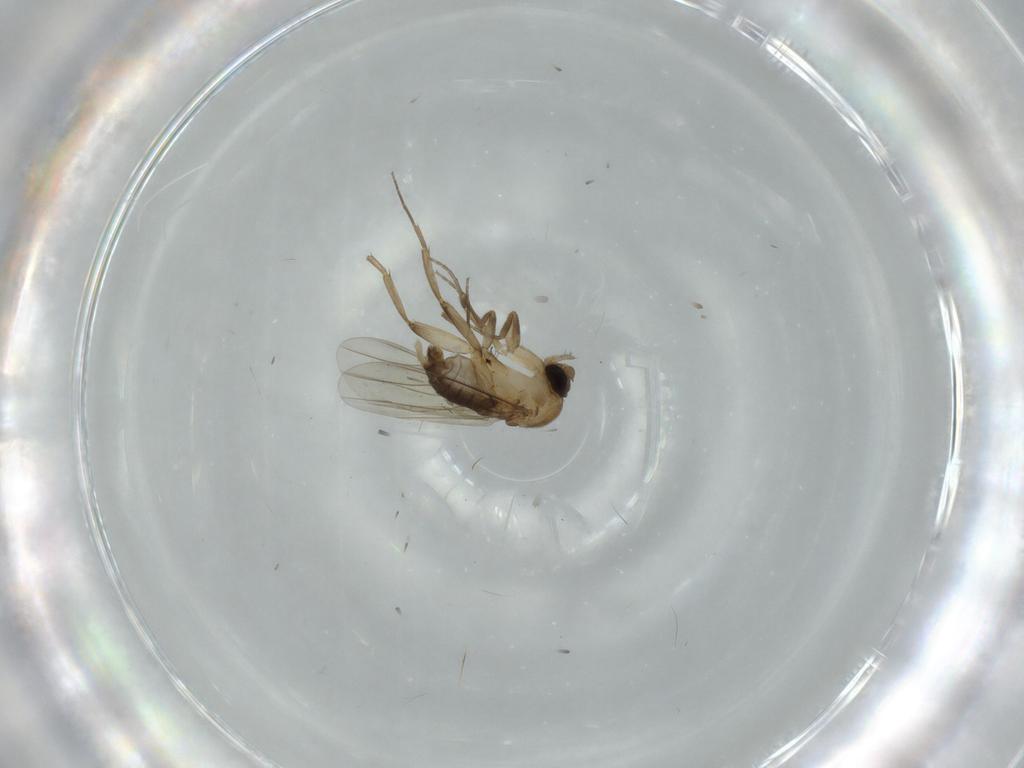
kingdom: Animalia
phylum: Arthropoda
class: Insecta
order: Diptera
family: Phoridae
